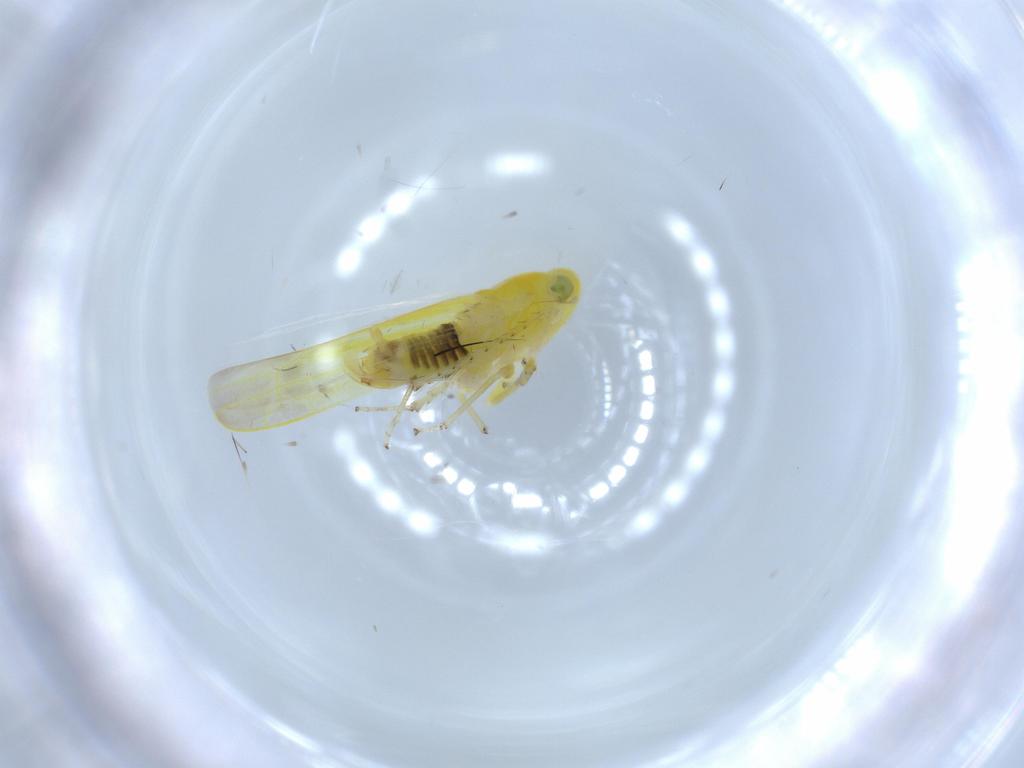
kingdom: Animalia
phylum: Arthropoda
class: Insecta
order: Hemiptera
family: Cicadellidae
